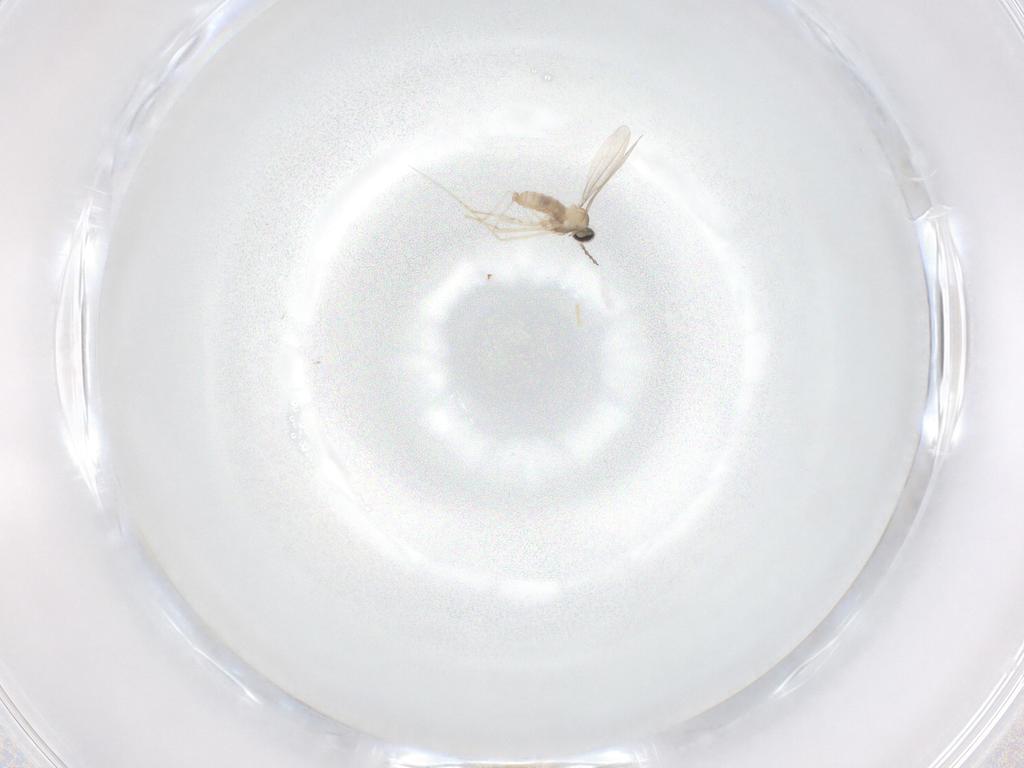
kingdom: Animalia
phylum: Arthropoda
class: Insecta
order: Diptera
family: Cecidomyiidae
